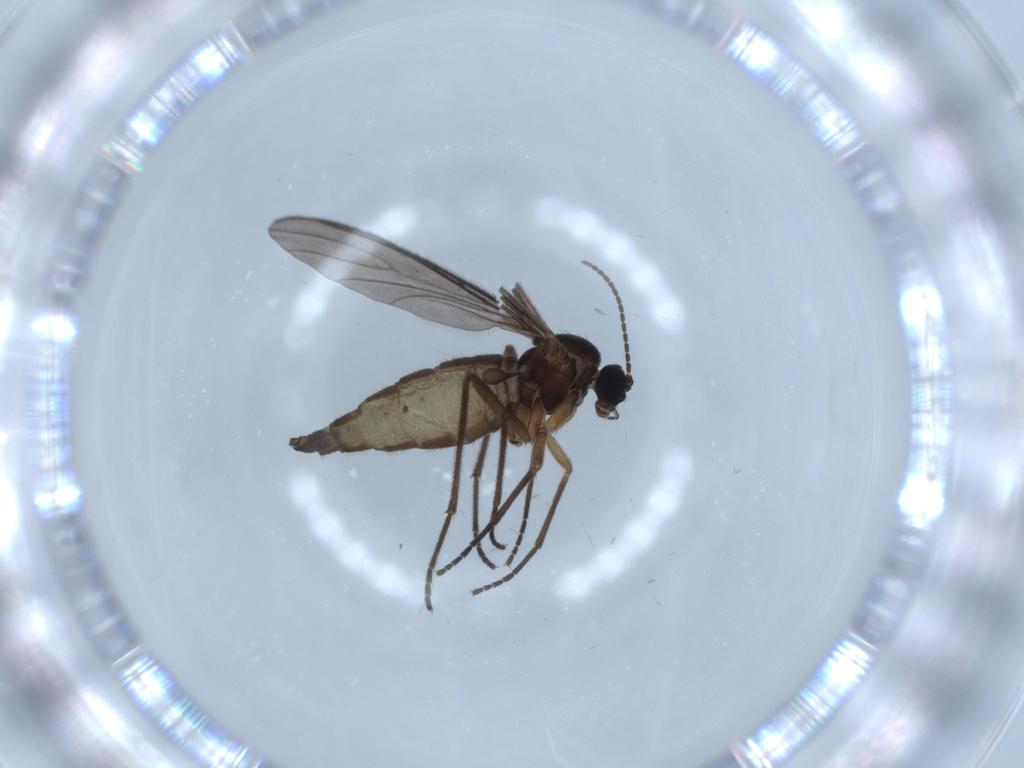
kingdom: Animalia
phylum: Arthropoda
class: Insecta
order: Diptera
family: Sciaridae
